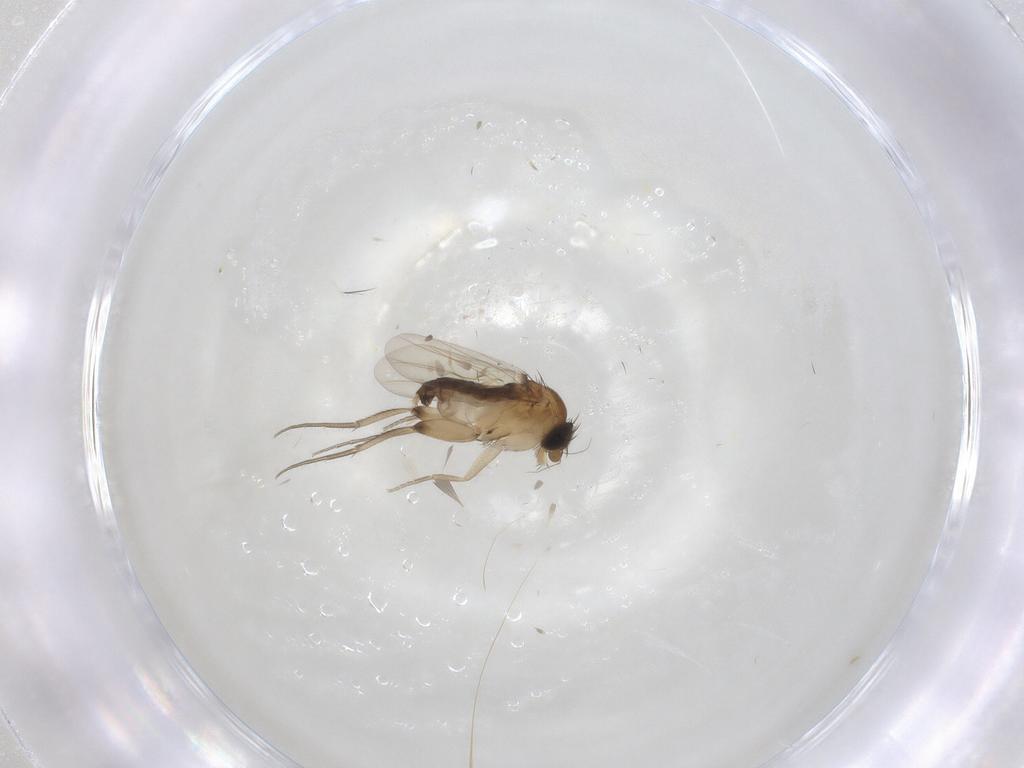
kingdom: Animalia
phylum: Arthropoda
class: Insecta
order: Diptera
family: Phoridae
